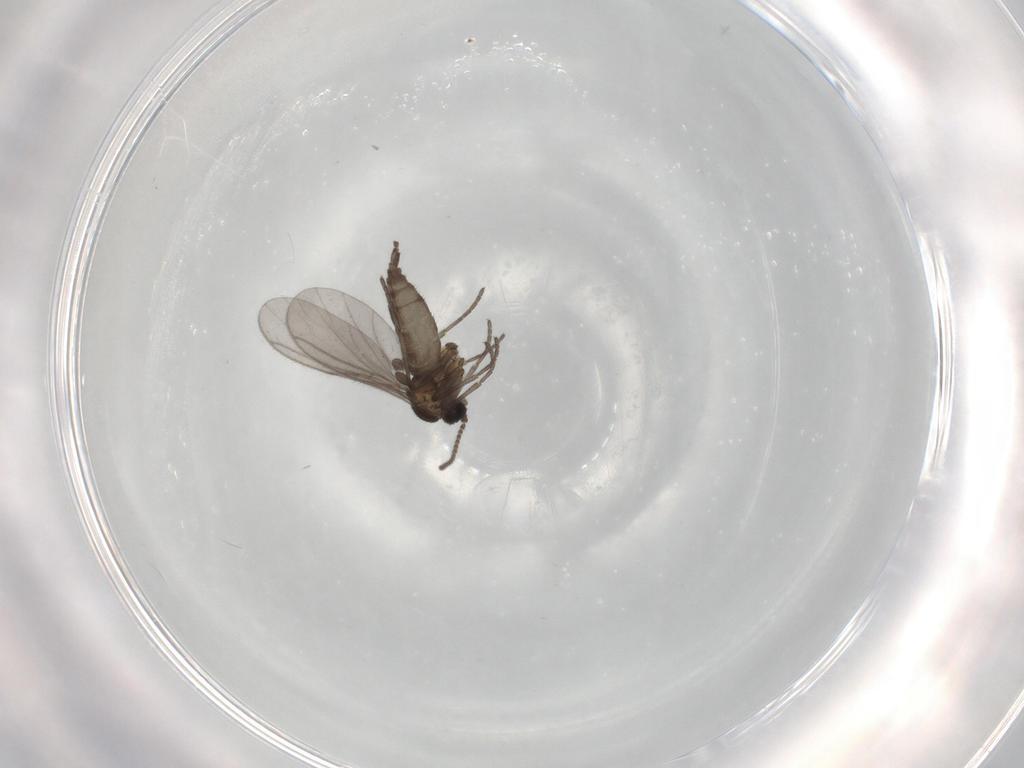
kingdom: Animalia
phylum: Arthropoda
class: Insecta
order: Diptera
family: Sciaridae
